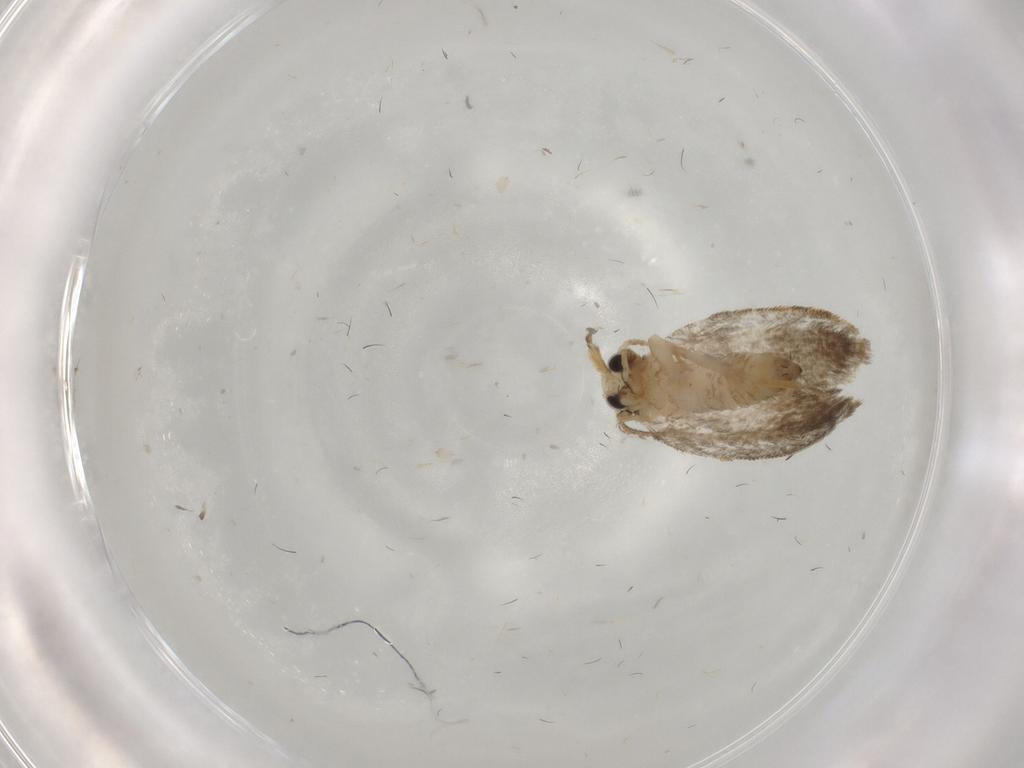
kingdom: Animalia
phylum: Arthropoda
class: Insecta
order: Lepidoptera
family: Psychidae
